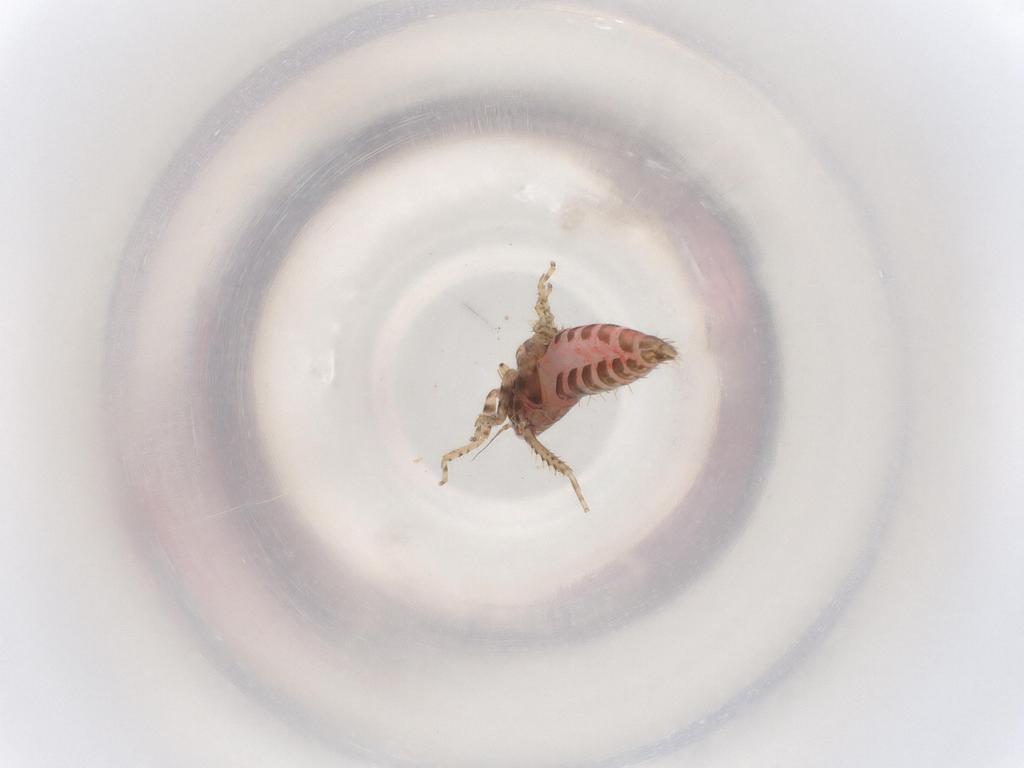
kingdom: Animalia
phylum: Arthropoda
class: Insecta
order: Hemiptera
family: Cicadellidae
